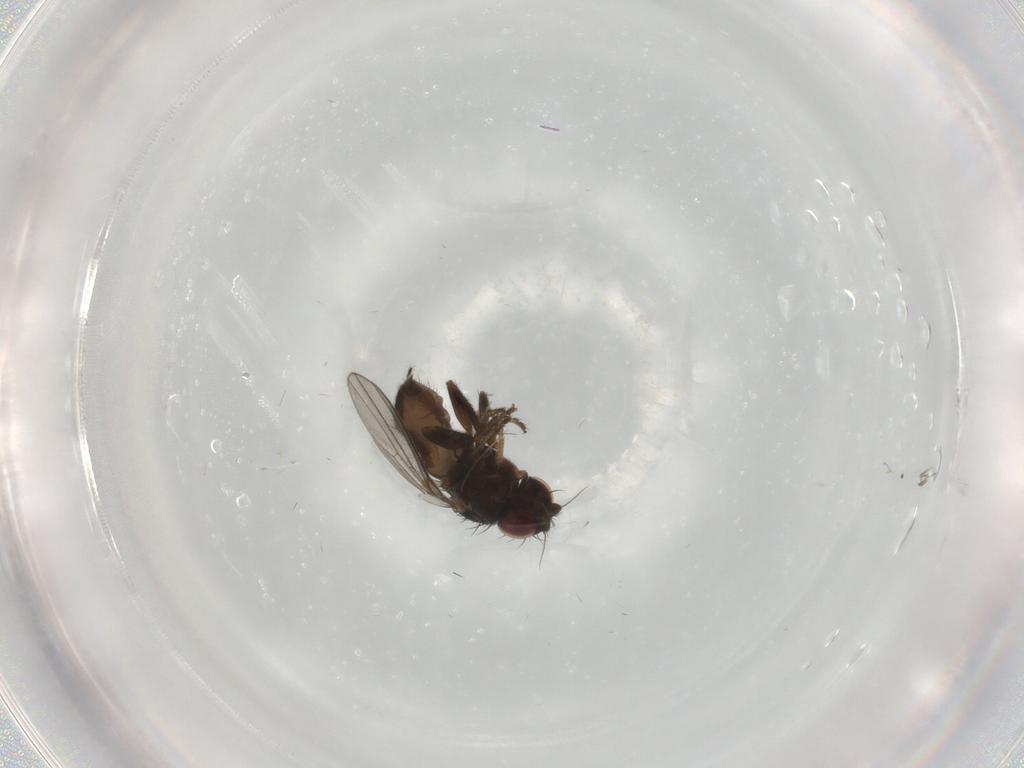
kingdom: Animalia
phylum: Arthropoda
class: Insecta
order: Diptera
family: Milichiidae
